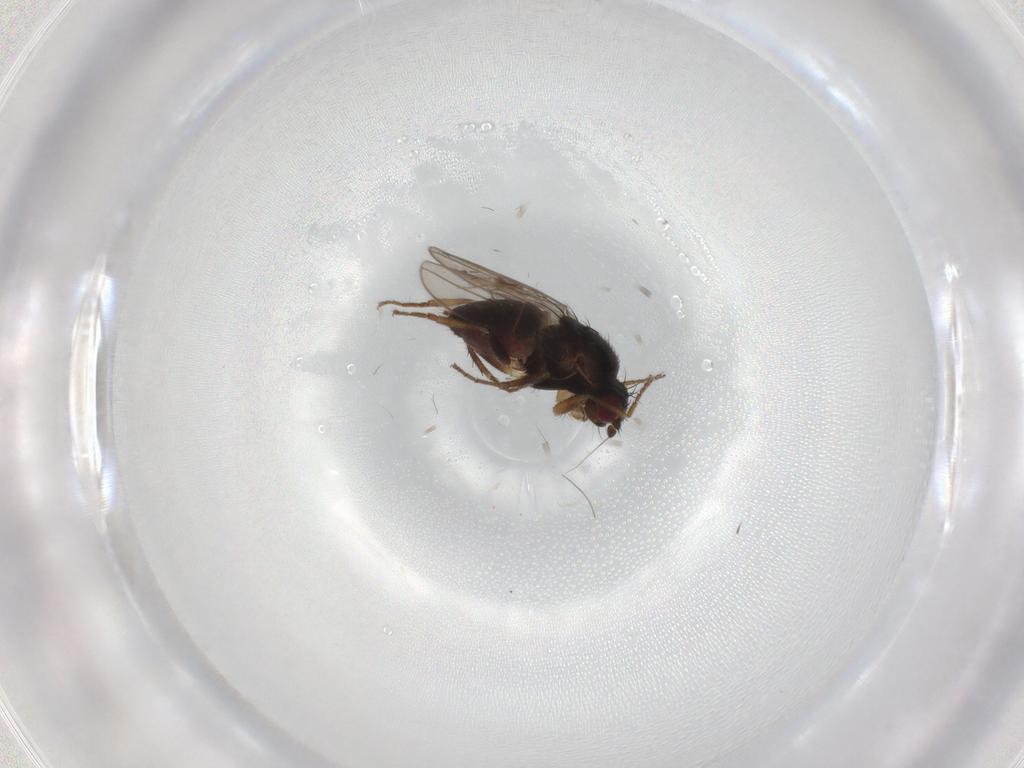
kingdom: Animalia
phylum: Arthropoda
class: Insecta
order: Diptera
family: Sphaeroceridae
